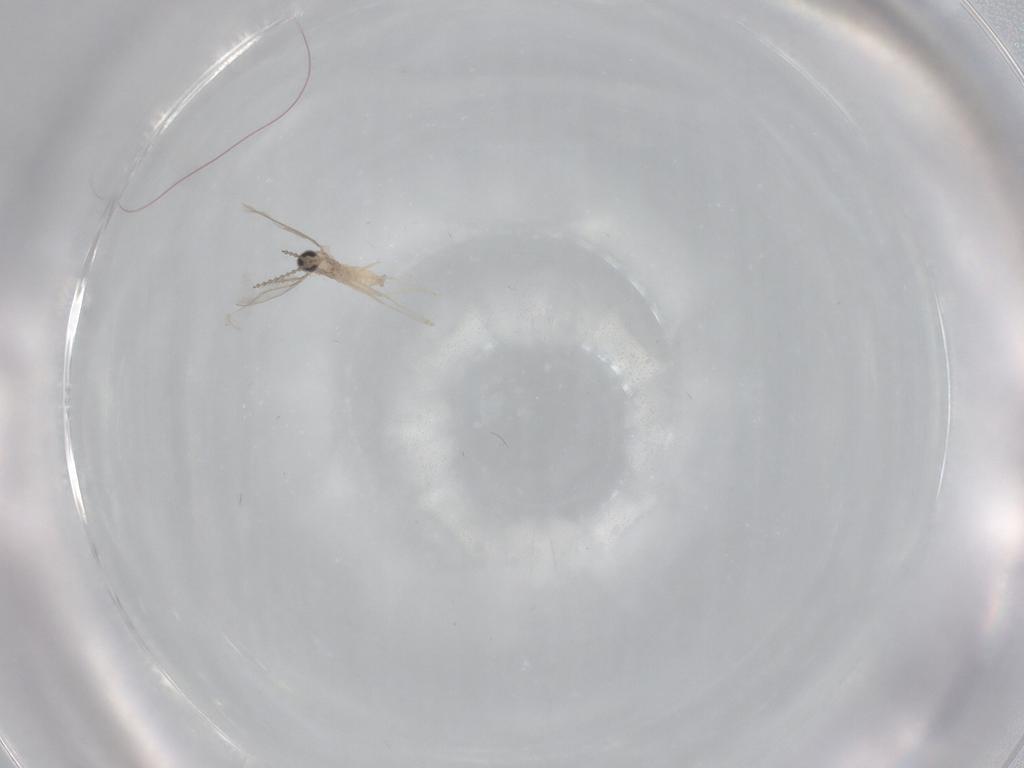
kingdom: Animalia
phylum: Arthropoda
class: Insecta
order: Diptera
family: Cecidomyiidae
